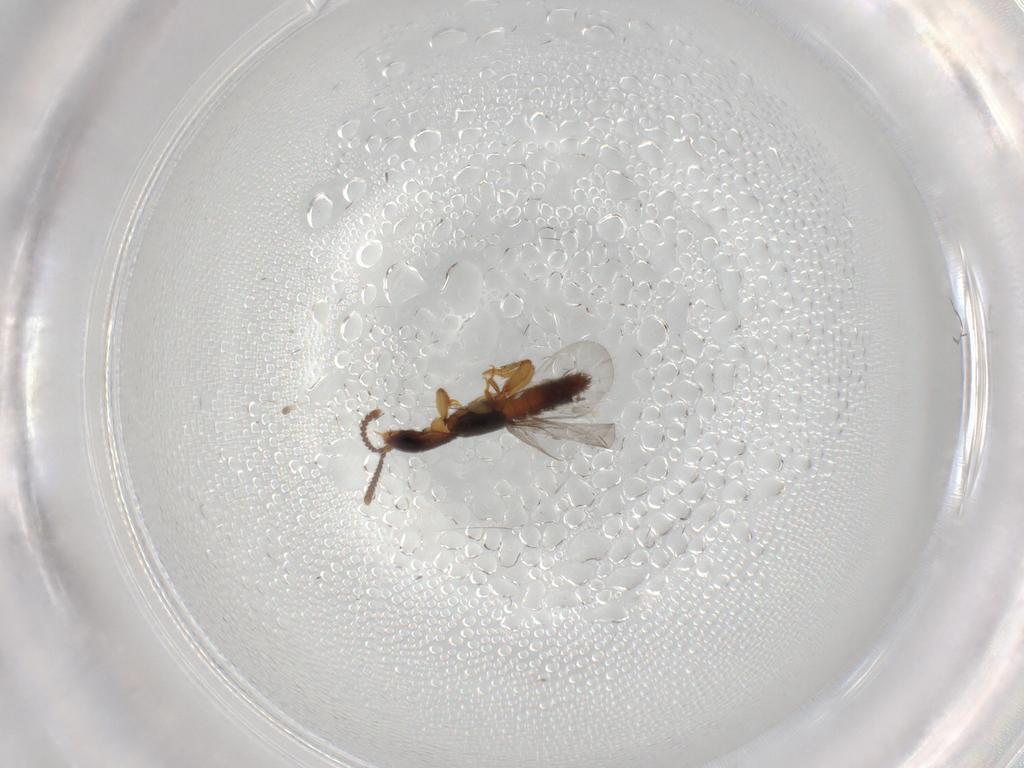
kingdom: Animalia
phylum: Arthropoda
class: Insecta
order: Coleoptera
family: Staphylinidae
